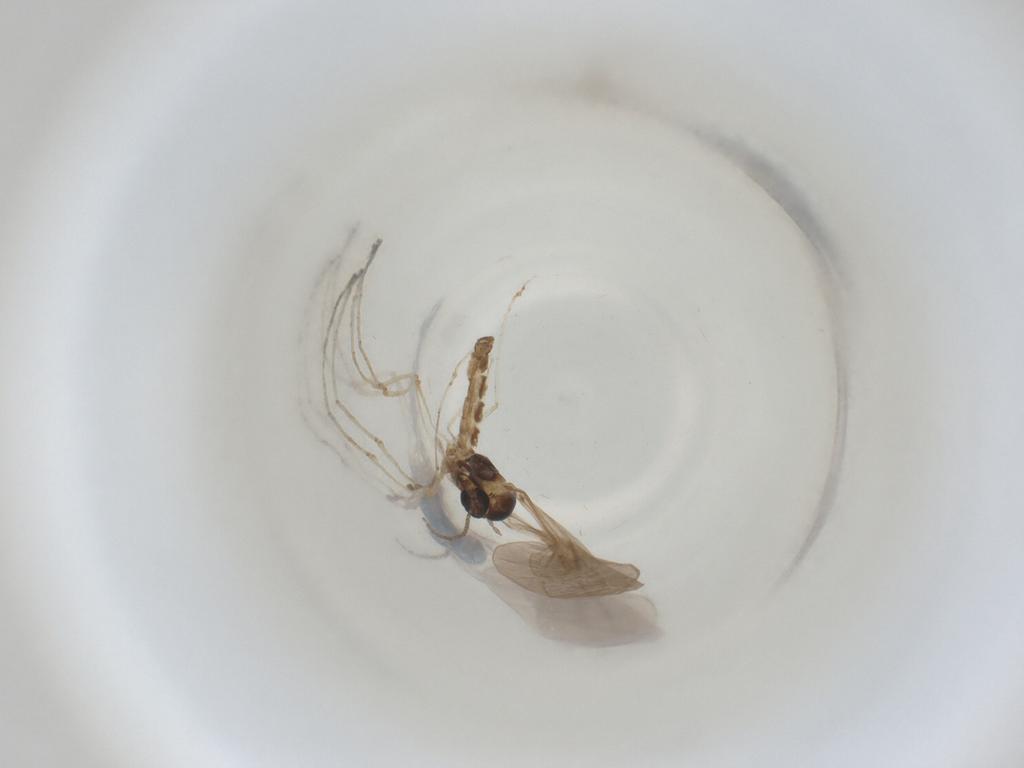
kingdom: Animalia
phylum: Arthropoda
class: Insecta
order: Diptera
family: Cecidomyiidae
